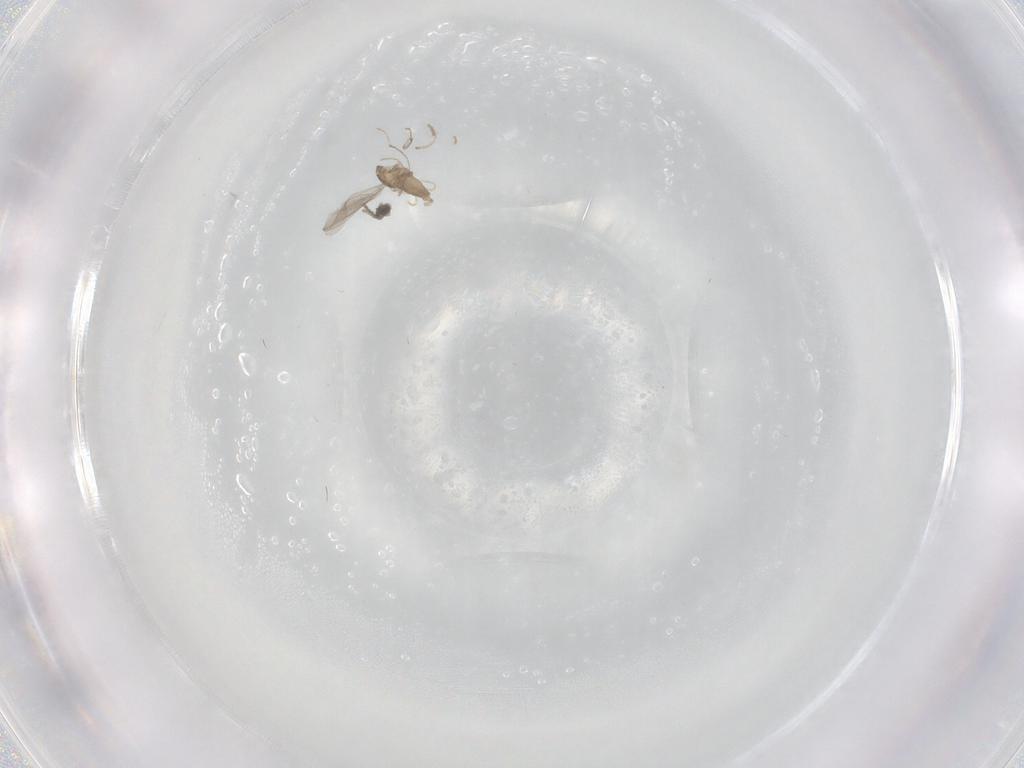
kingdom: Animalia
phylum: Arthropoda
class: Insecta
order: Diptera
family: Cecidomyiidae
